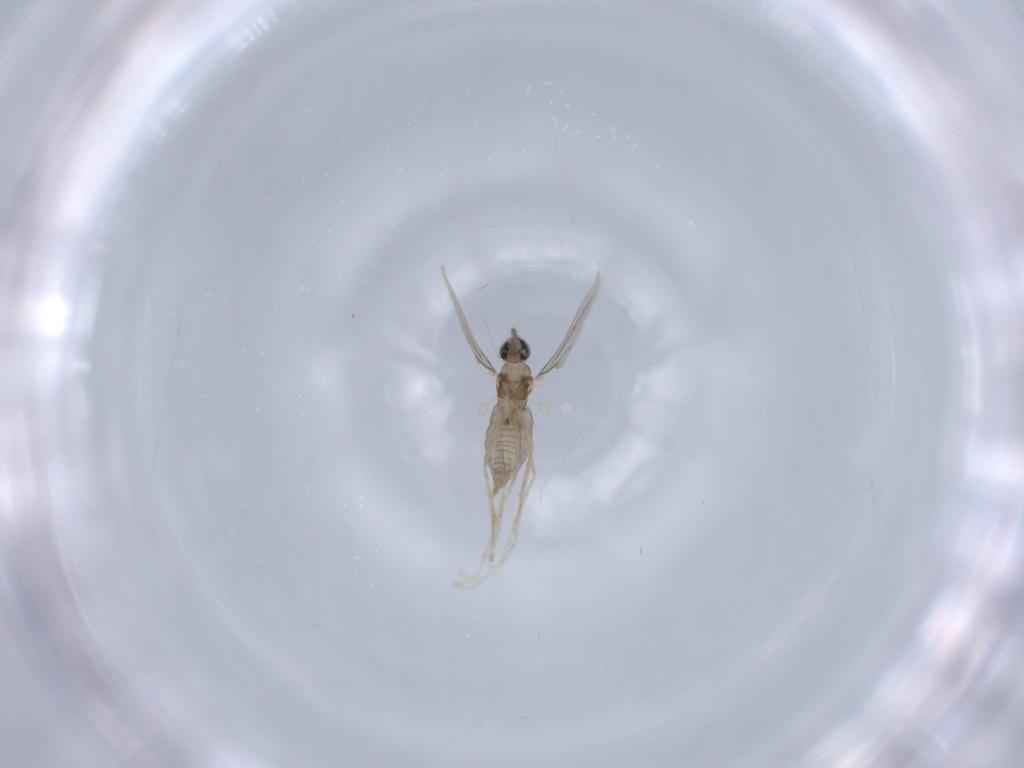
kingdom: Animalia
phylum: Arthropoda
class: Insecta
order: Diptera
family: Cecidomyiidae
